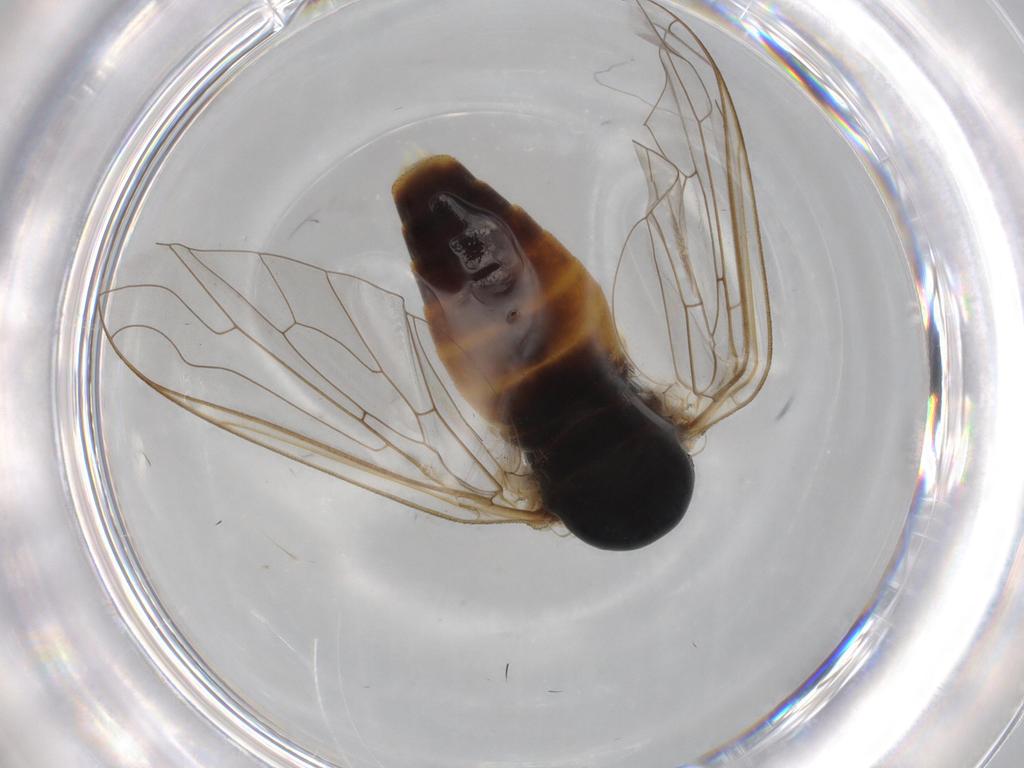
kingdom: Animalia
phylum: Arthropoda
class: Insecta
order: Diptera
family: Bombyliidae
